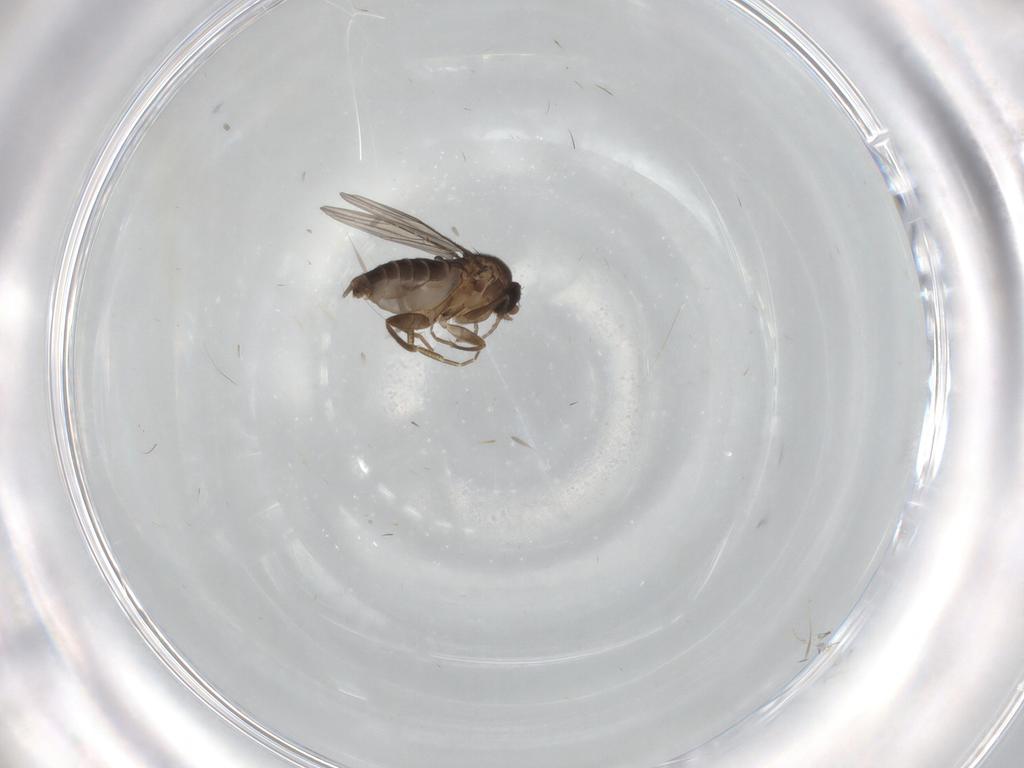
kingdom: Animalia
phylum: Arthropoda
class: Insecta
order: Diptera
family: Phoridae
